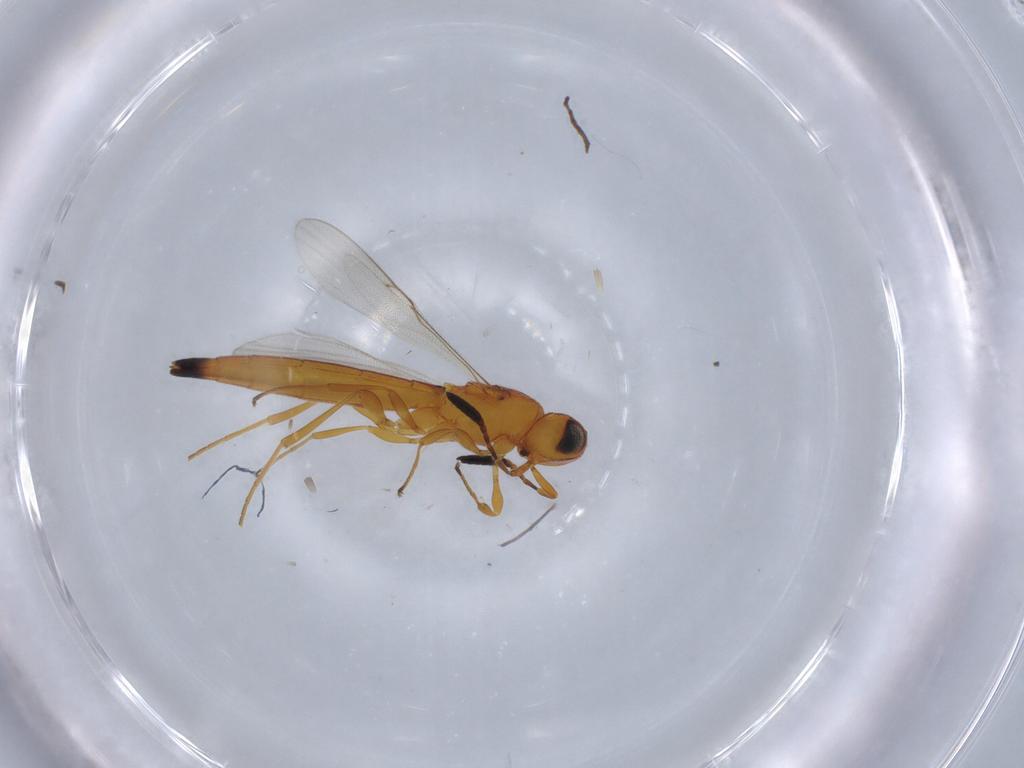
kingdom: Animalia
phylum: Arthropoda
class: Insecta
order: Hymenoptera
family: Scelionidae
